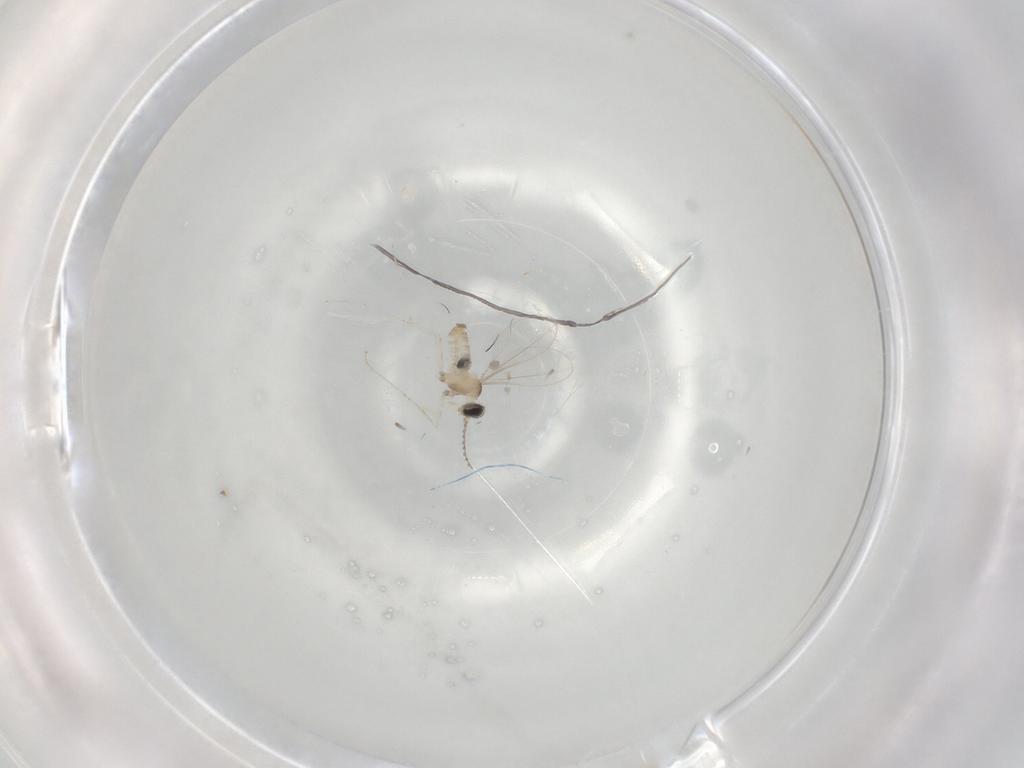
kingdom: Animalia
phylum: Arthropoda
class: Insecta
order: Diptera
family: Cecidomyiidae
